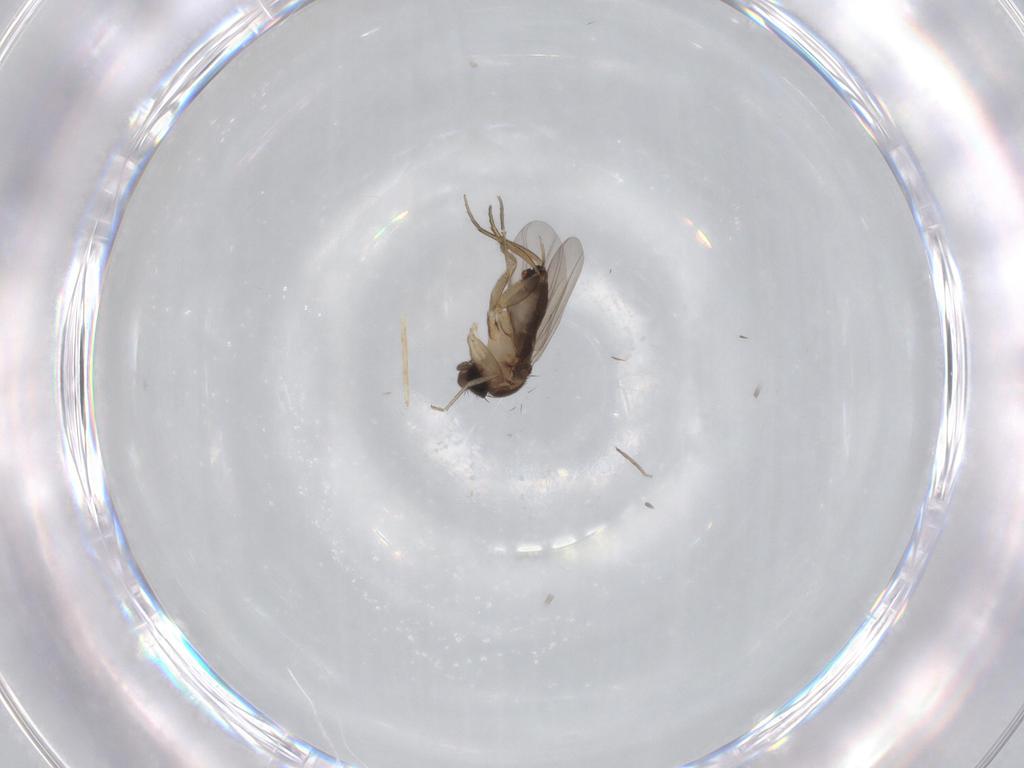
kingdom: Animalia
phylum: Arthropoda
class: Insecta
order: Diptera
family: Chironomidae
